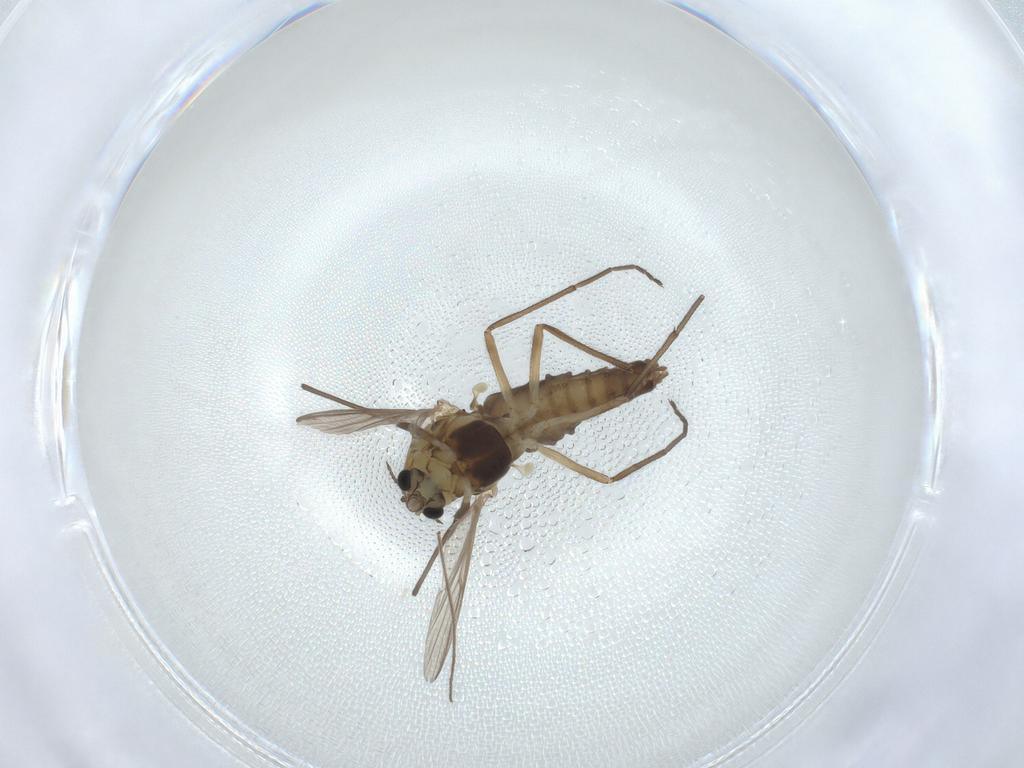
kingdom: Animalia
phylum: Arthropoda
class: Insecta
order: Diptera
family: Chironomidae
